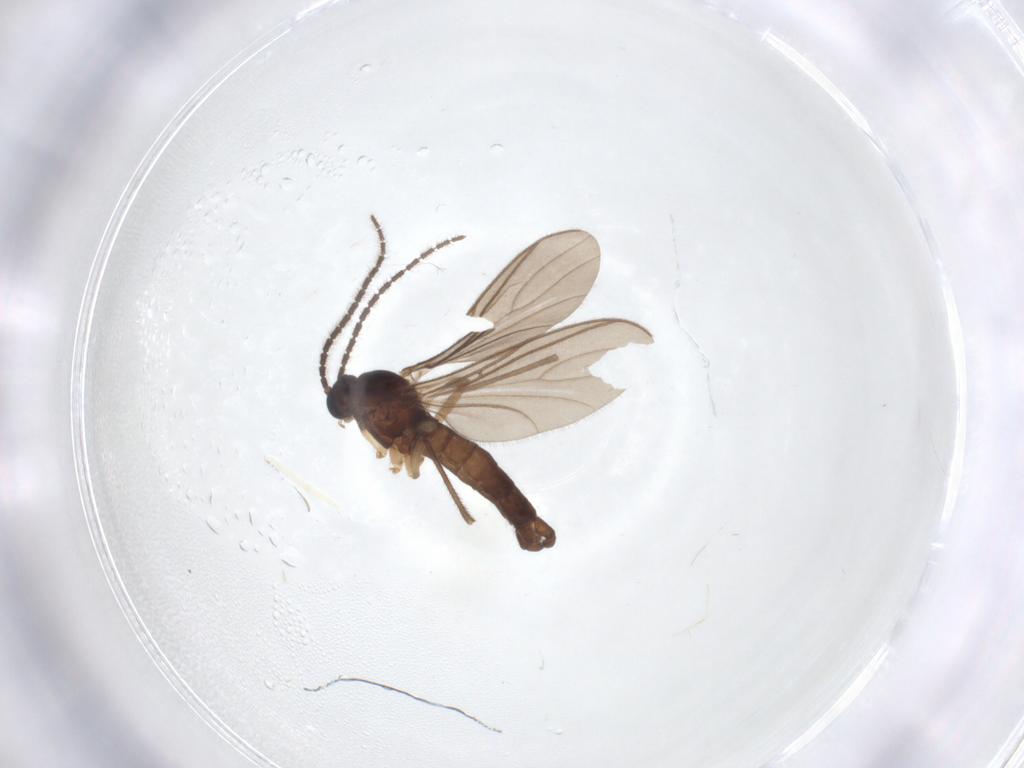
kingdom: Animalia
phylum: Arthropoda
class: Insecta
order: Diptera
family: Sciaridae
